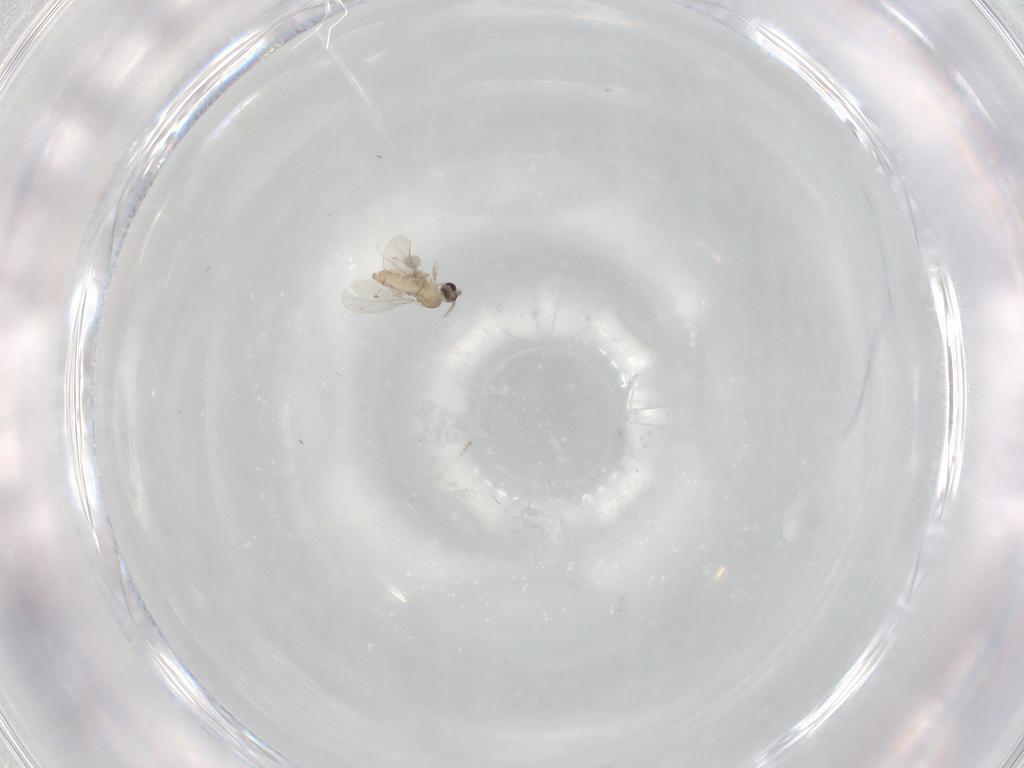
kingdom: Animalia
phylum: Arthropoda
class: Insecta
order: Diptera
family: Cecidomyiidae
